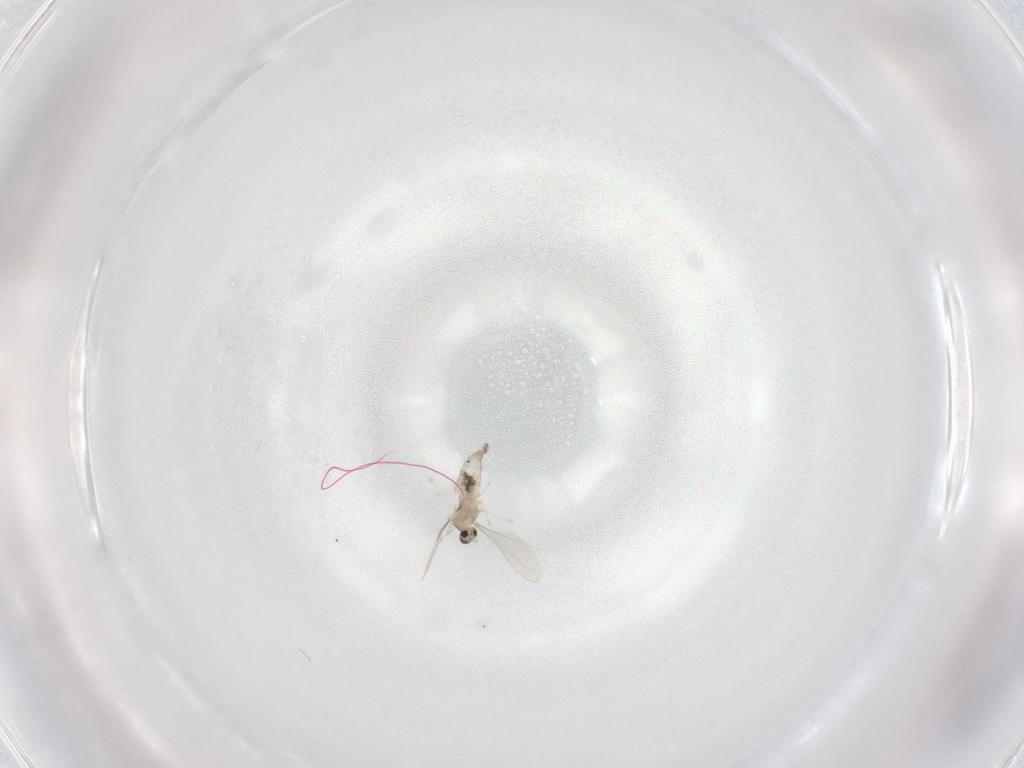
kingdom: Animalia
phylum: Arthropoda
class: Insecta
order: Diptera
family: Cecidomyiidae
